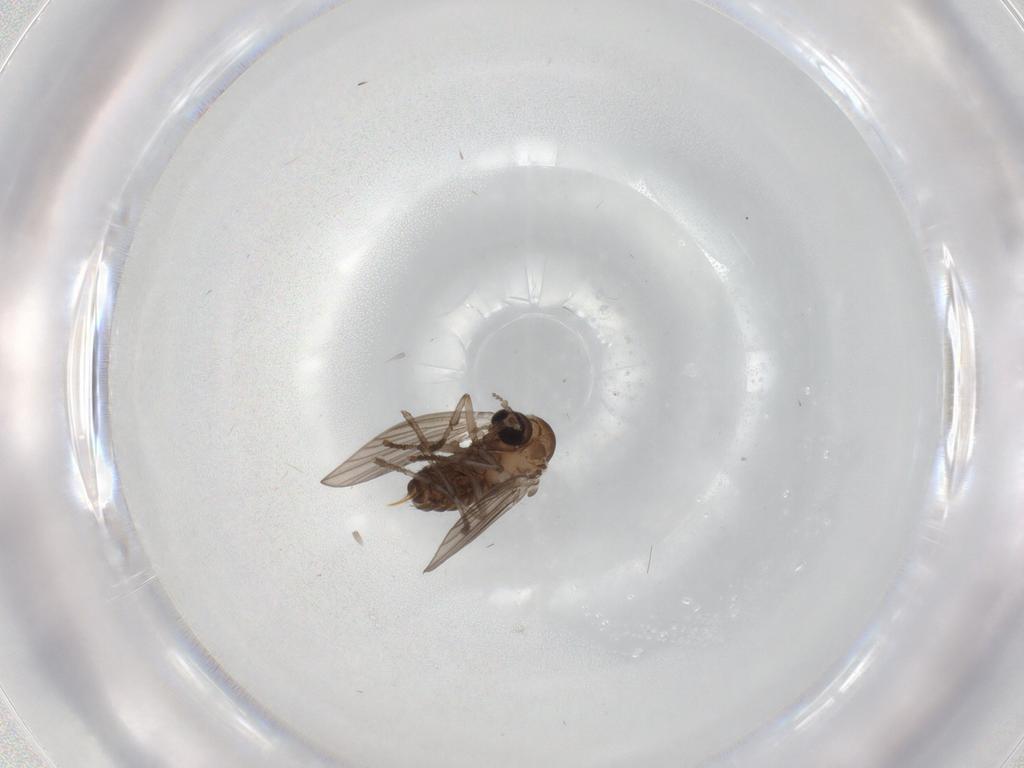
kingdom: Animalia
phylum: Arthropoda
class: Insecta
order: Diptera
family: Psychodidae
